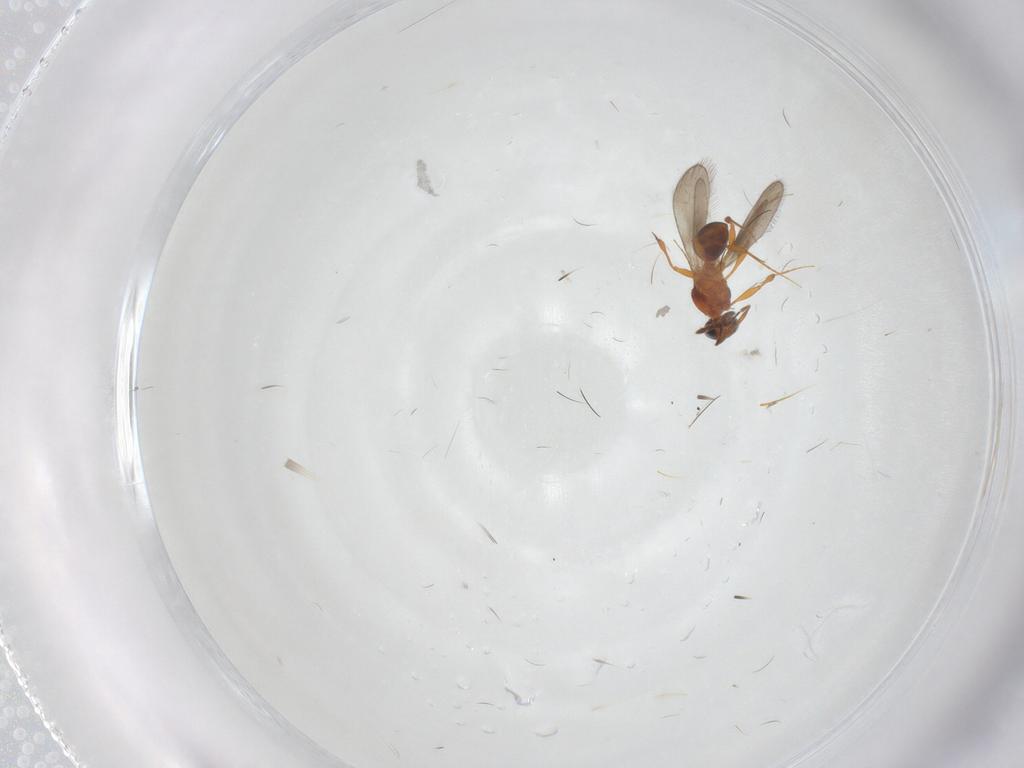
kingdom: Animalia
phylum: Arthropoda
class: Insecta
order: Hymenoptera
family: Platygastridae
